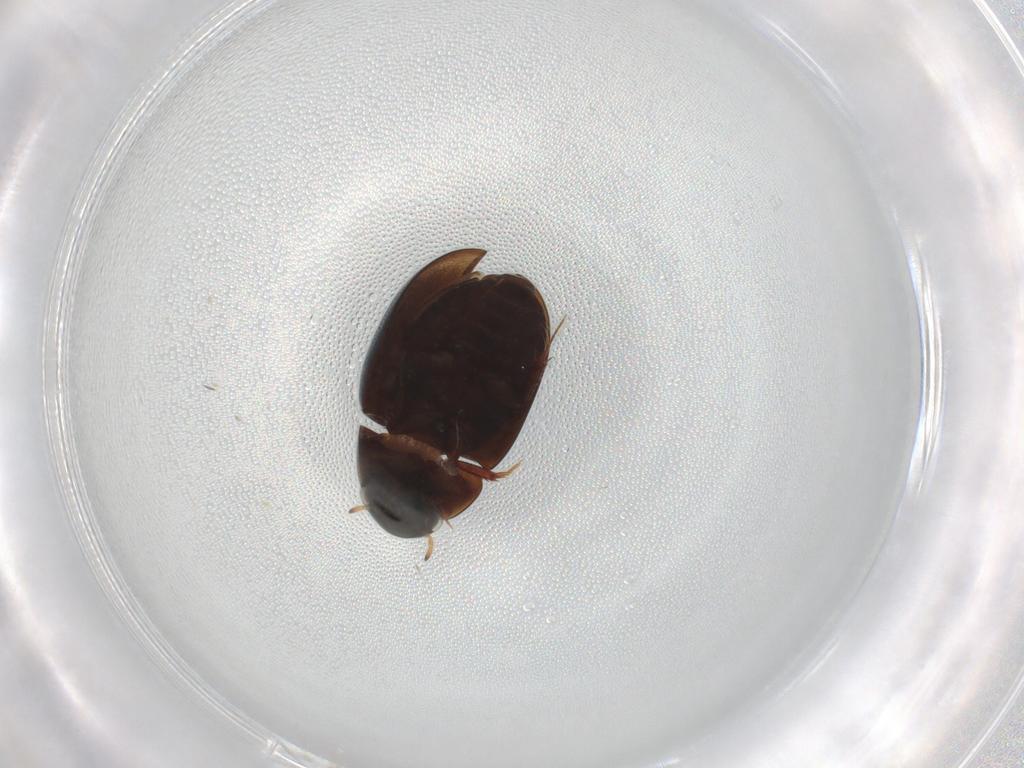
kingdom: Animalia
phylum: Arthropoda
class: Insecta
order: Coleoptera
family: Limnichidae
